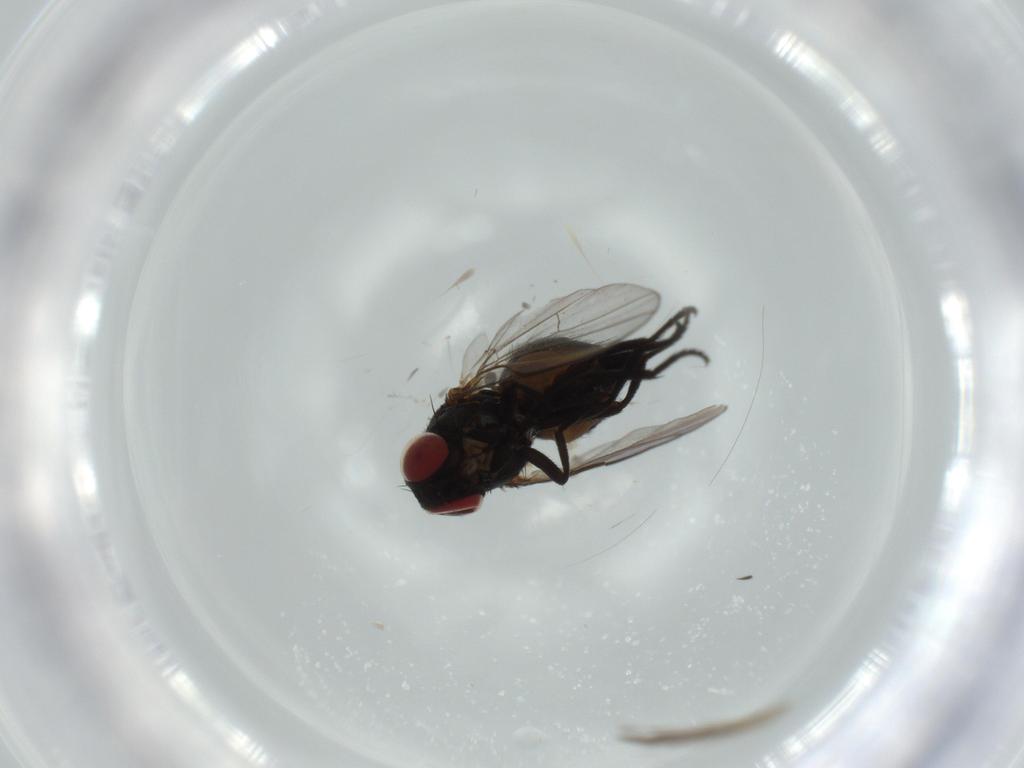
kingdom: Animalia
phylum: Arthropoda
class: Insecta
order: Diptera
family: Agromyzidae
